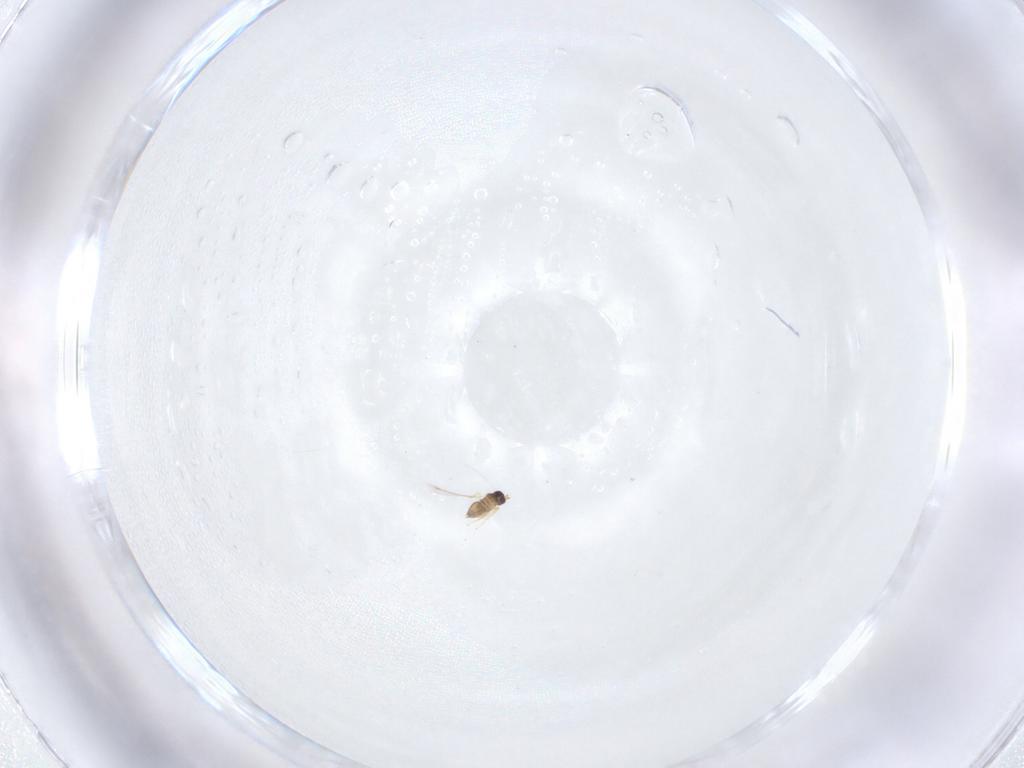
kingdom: Animalia
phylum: Arthropoda
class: Insecta
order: Hymenoptera
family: Mymaridae
